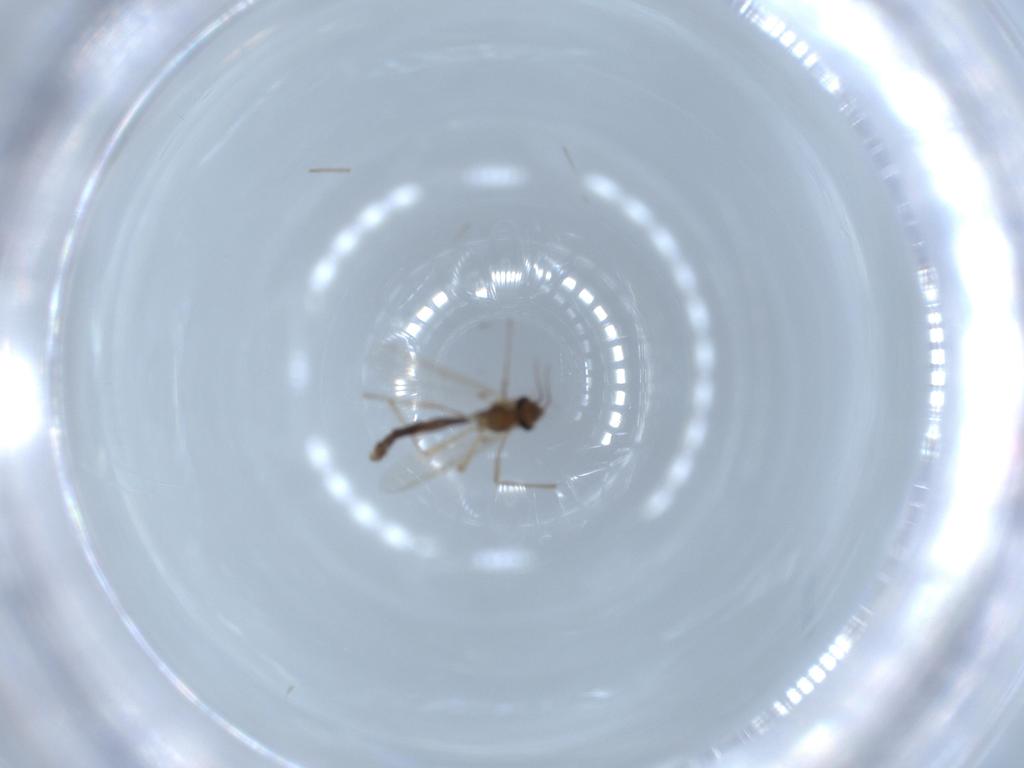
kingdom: Animalia
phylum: Arthropoda
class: Insecta
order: Diptera
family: Chironomidae
